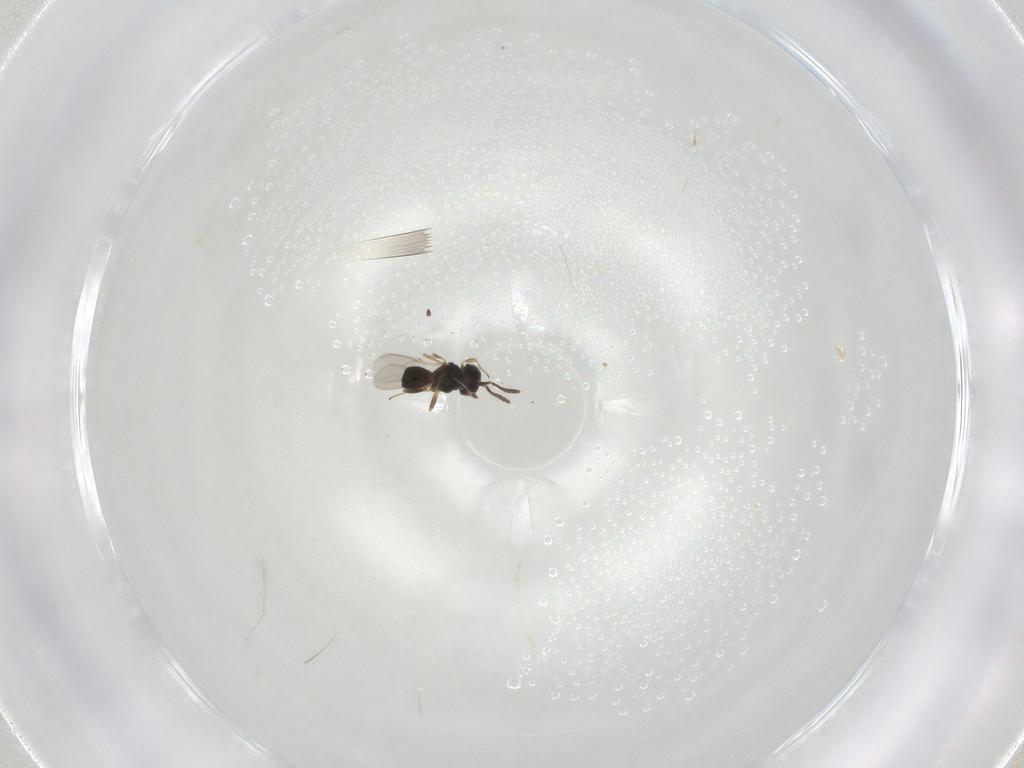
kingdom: Animalia
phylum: Arthropoda
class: Insecta
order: Hymenoptera
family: Scelionidae
